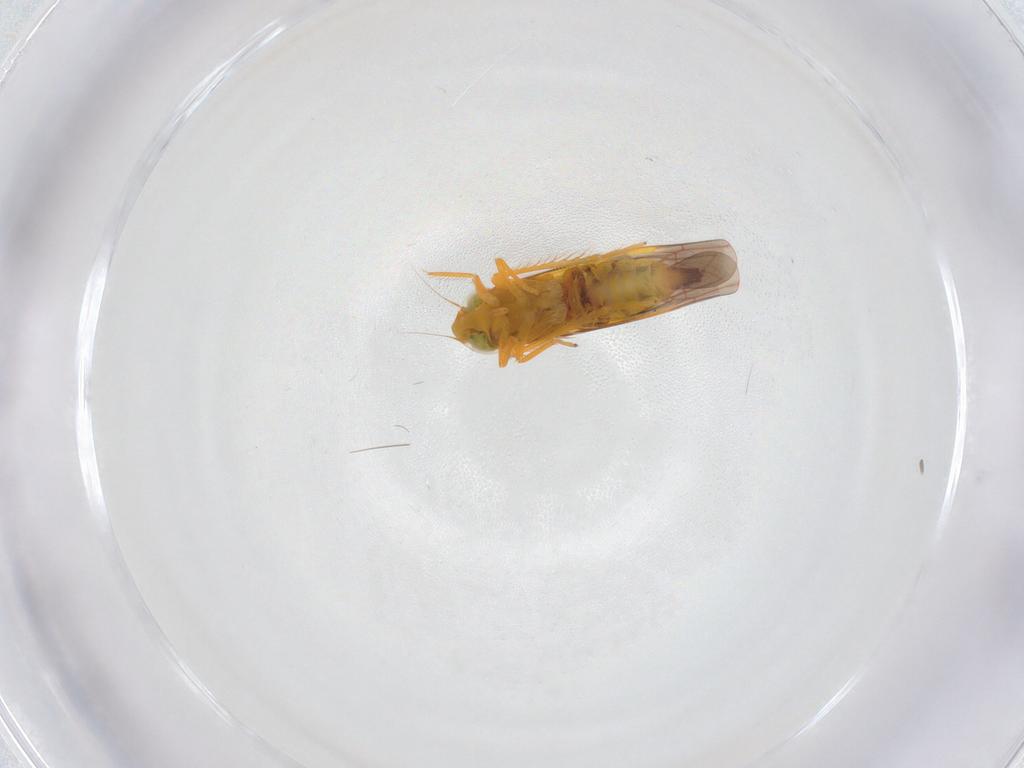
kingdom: Animalia
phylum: Arthropoda
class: Insecta
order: Hemiptera
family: Cicadellidae
